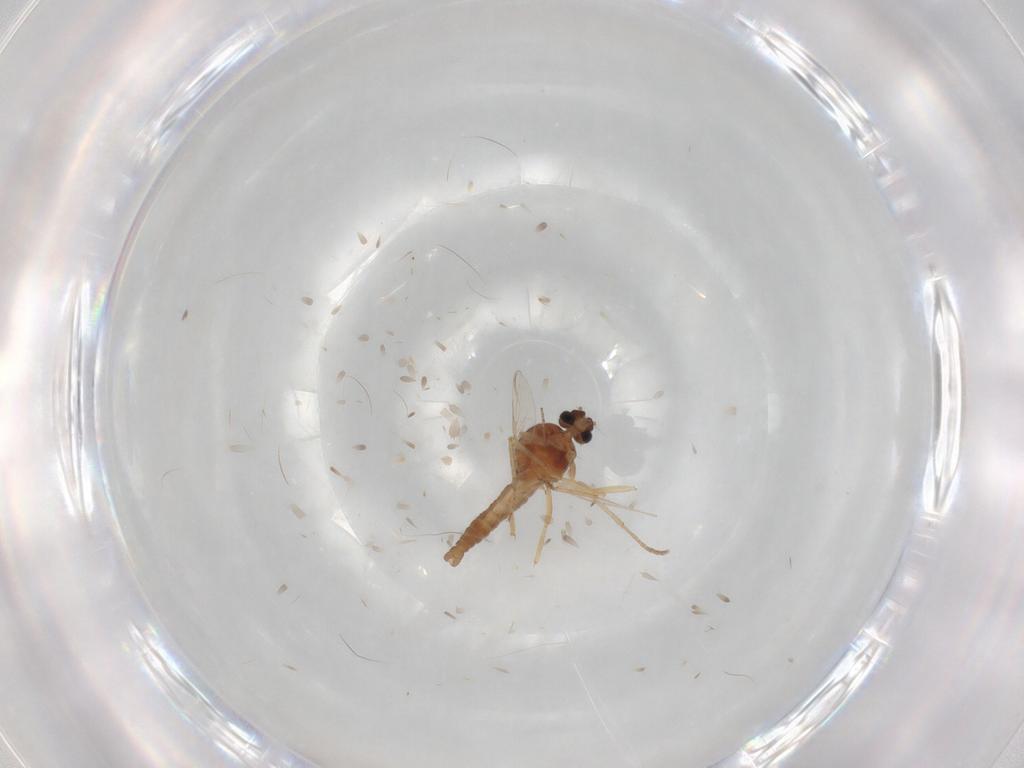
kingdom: Animalia
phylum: Arthropoda
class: Insecta
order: Diptera
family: Ceratopogonidae
